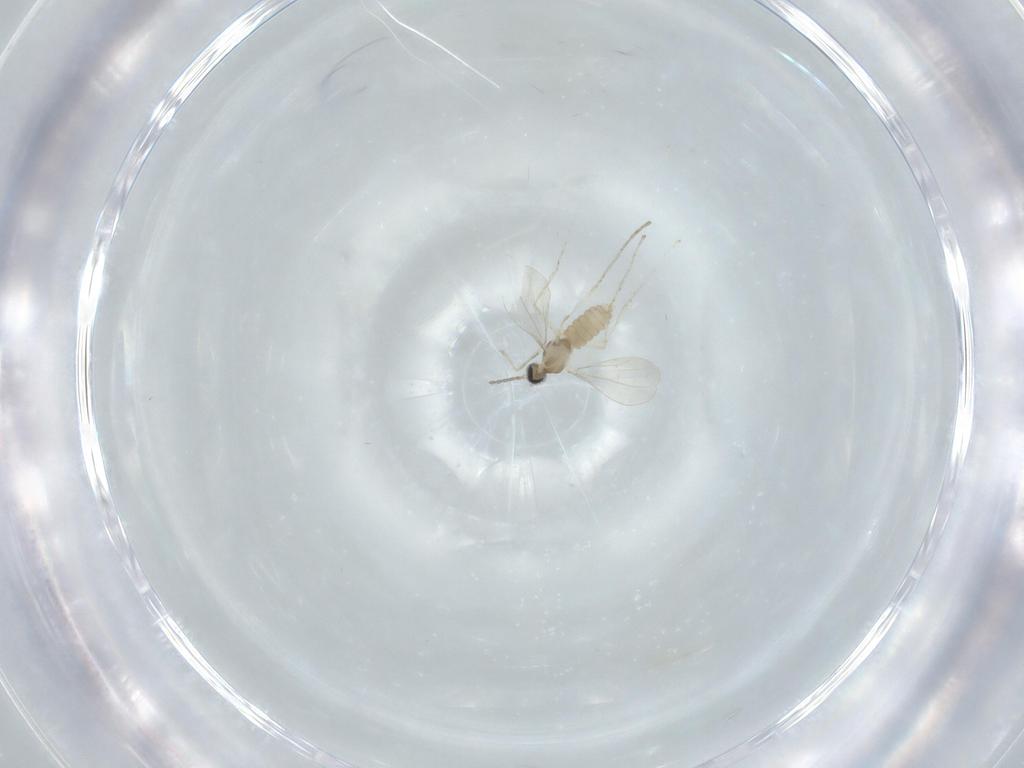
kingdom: Animalia
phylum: Arthropoda
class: Insecta
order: Diptera
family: Cecidomyiidae
